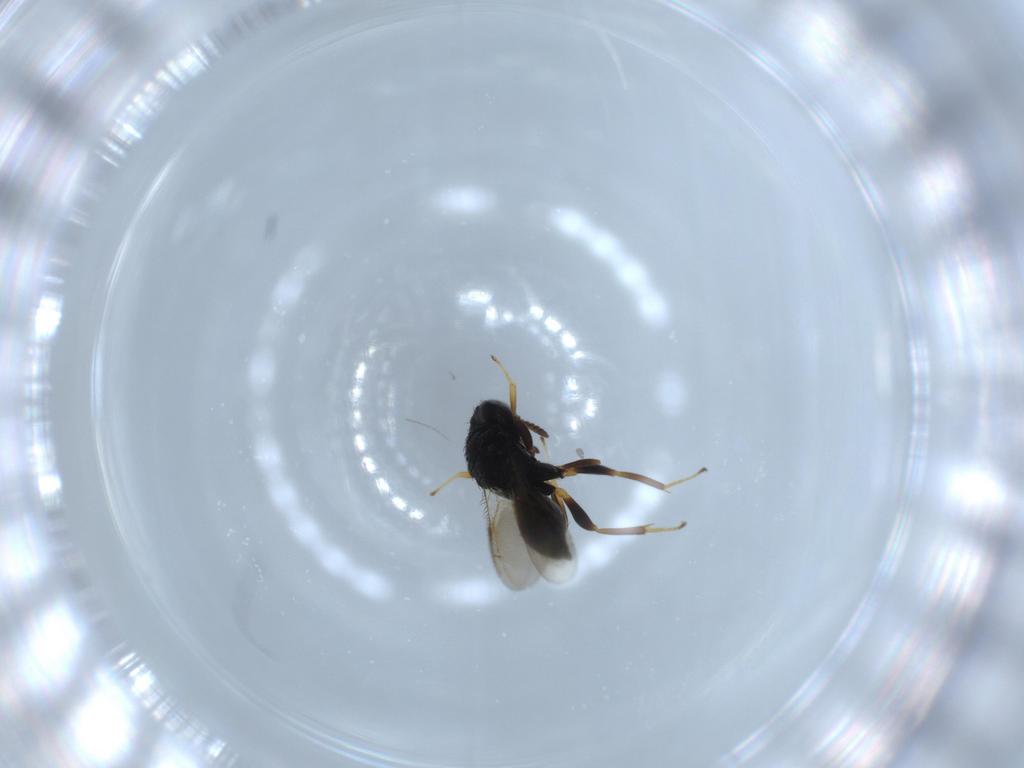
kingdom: Animalia
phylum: Arthropoda
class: Insecta
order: Hymenoptera
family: Pteromalidae
